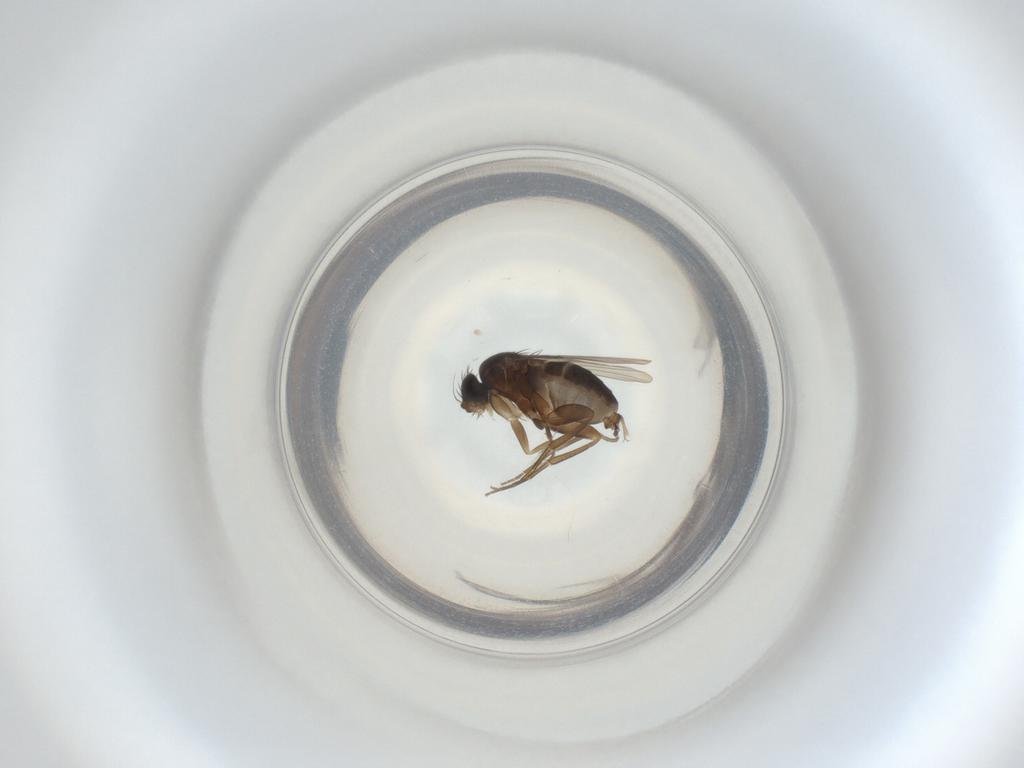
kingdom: Animalia
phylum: Arthropoda
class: Insecta
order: Diptera
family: Phoridae
